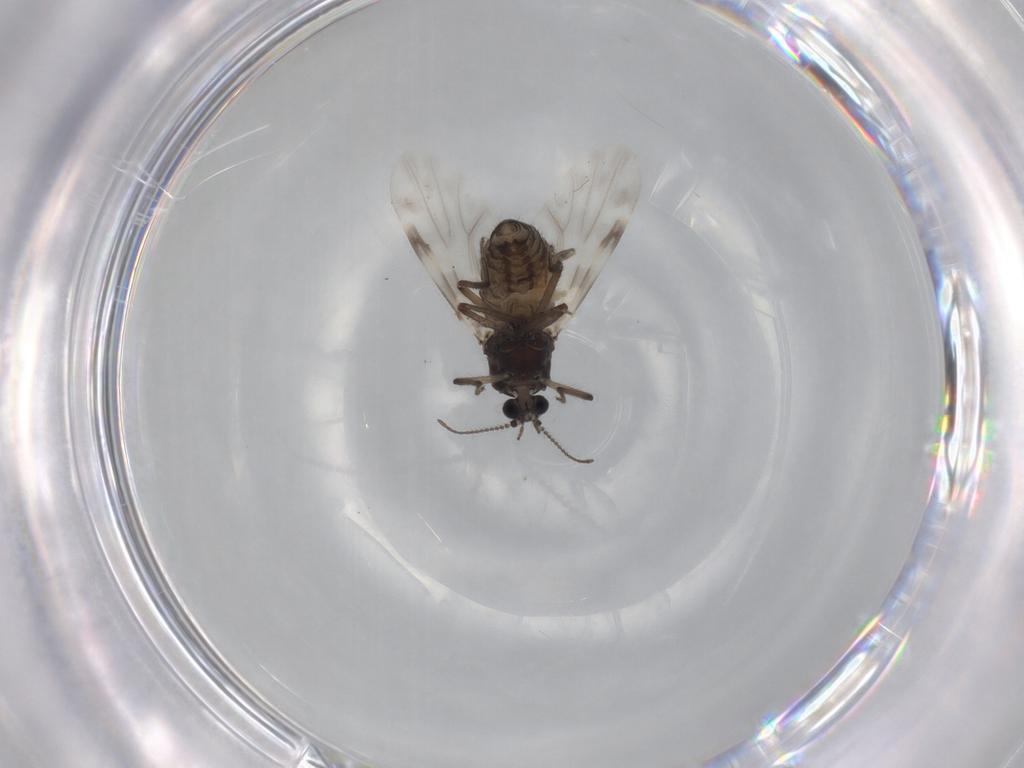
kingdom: Animalia
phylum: Arthropoda
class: Insecta
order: Diptera
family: Ceratopogonidae
